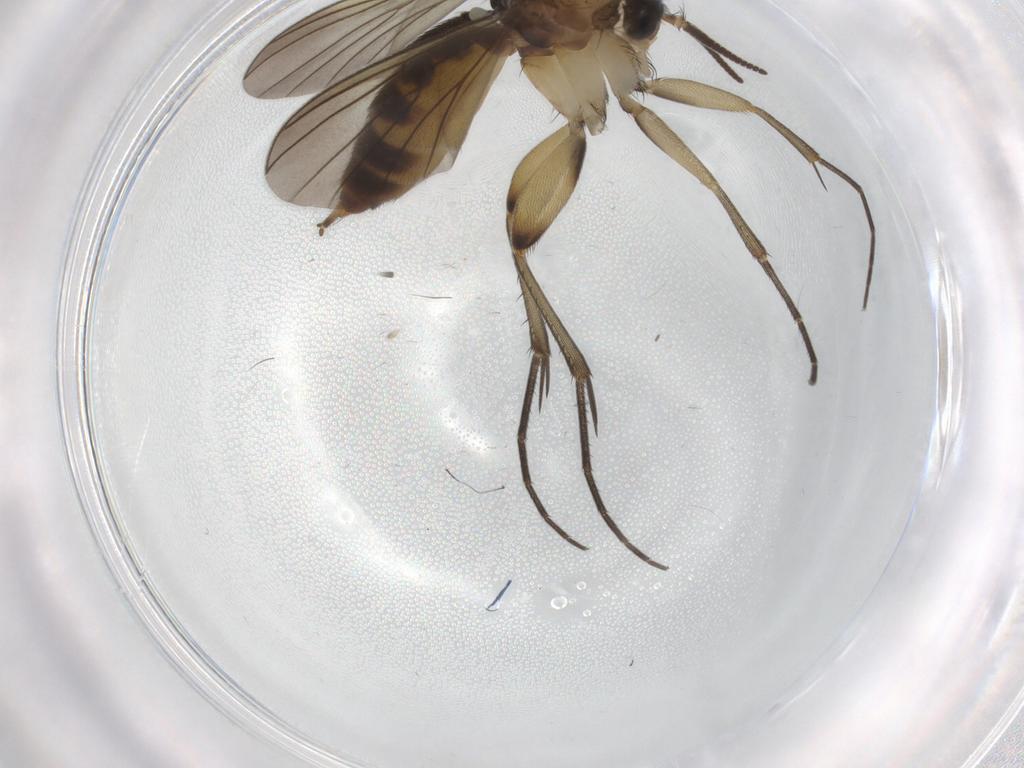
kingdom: Animalia
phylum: Arthropoda
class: Insecta
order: Diptera
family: Mycetophilidae
